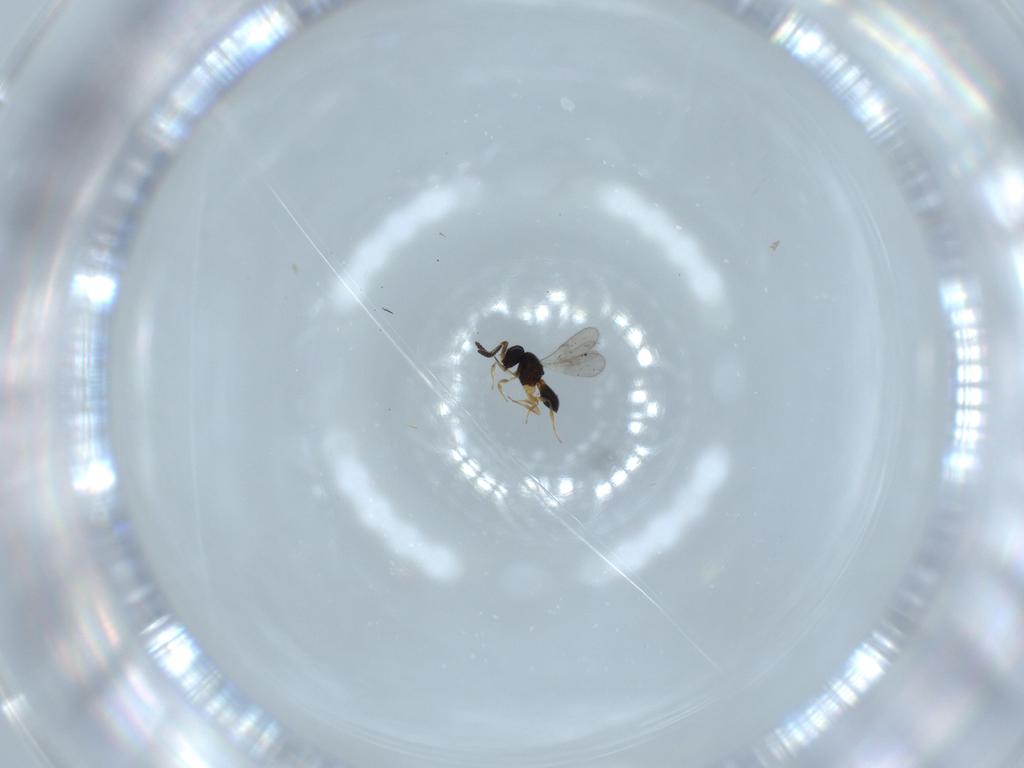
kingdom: Animalia
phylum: Arthropoda
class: Insecta
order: Hymenoptera
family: Scelionidae
